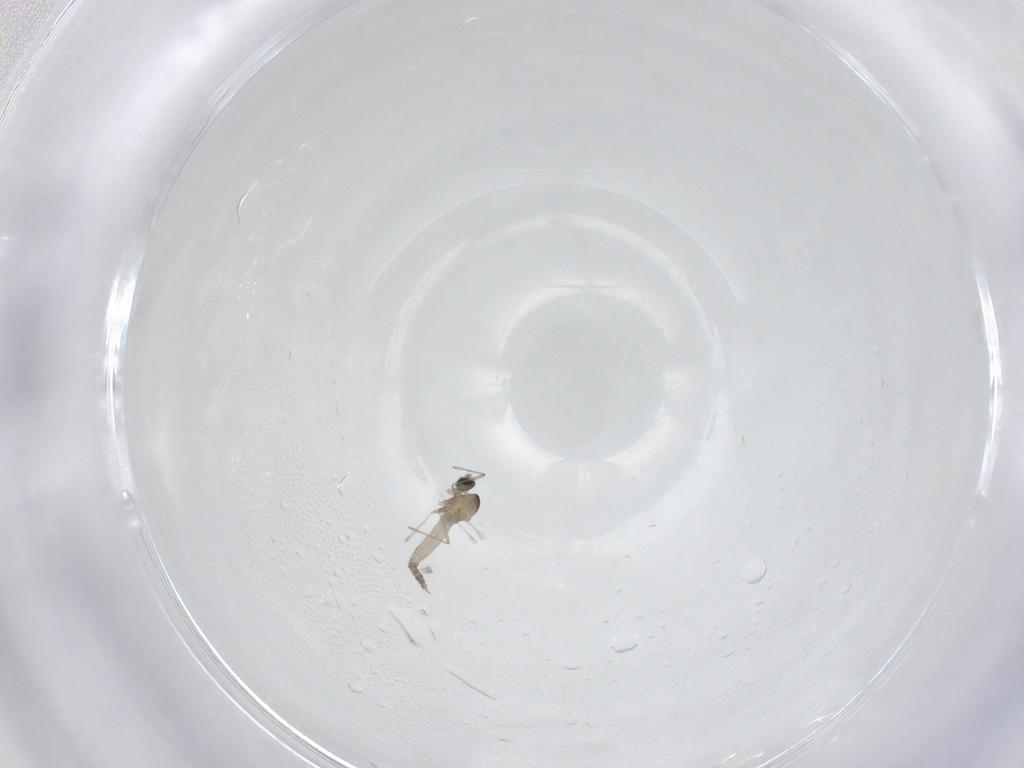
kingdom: Animalia
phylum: Arthropoda
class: Insecta
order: Diptera
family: Cecidomyiidae
